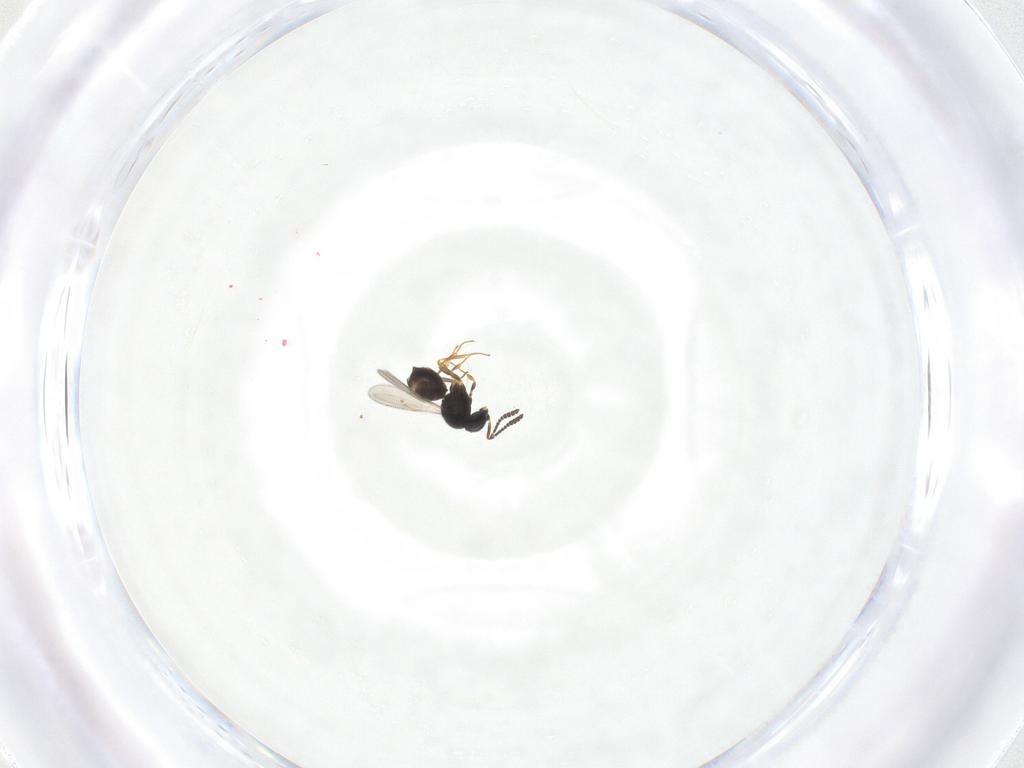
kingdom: Animalia
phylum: Arthropoda
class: Insecta
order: Hymenoptera
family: Scelionidae
